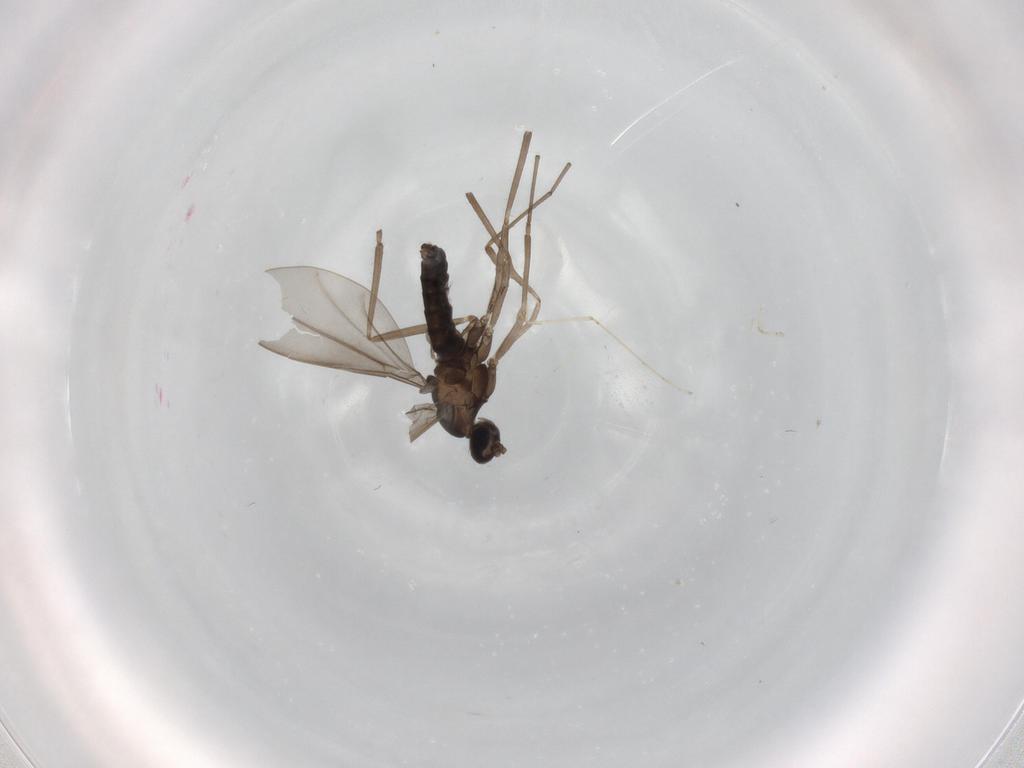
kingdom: Animalia
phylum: Arthropoda
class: Insecta
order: Diptera
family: Cecidomyiidae
